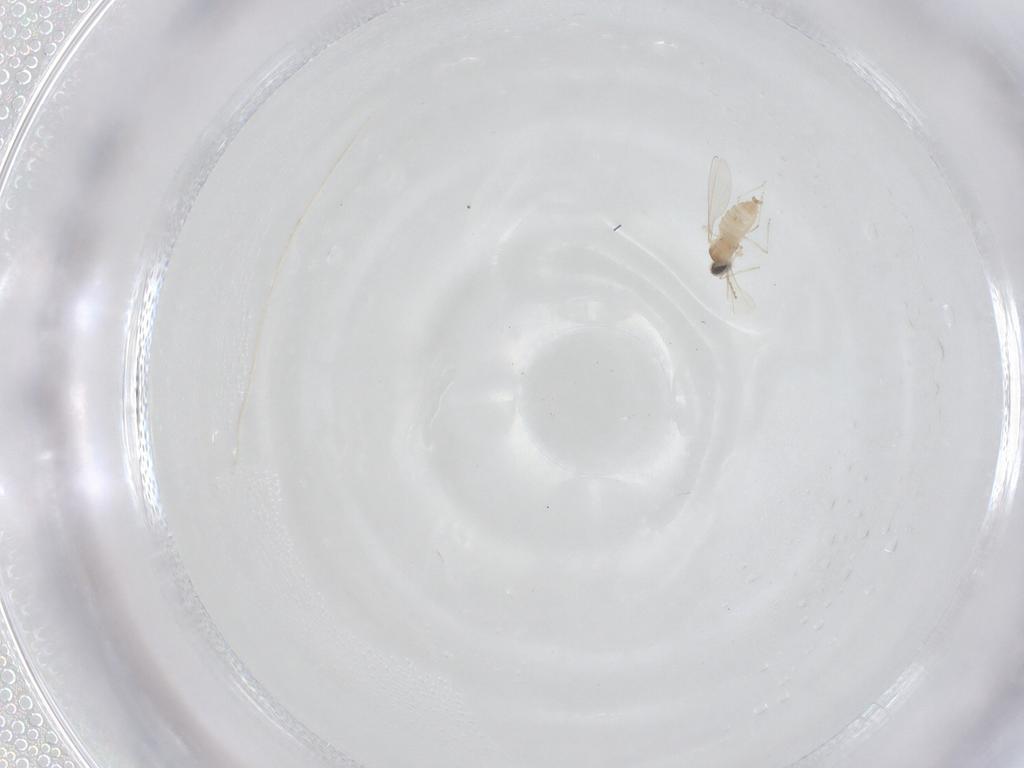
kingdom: Animalia
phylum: Arthropoda
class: Insecta
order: Diptera
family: Cecidomyiidae
